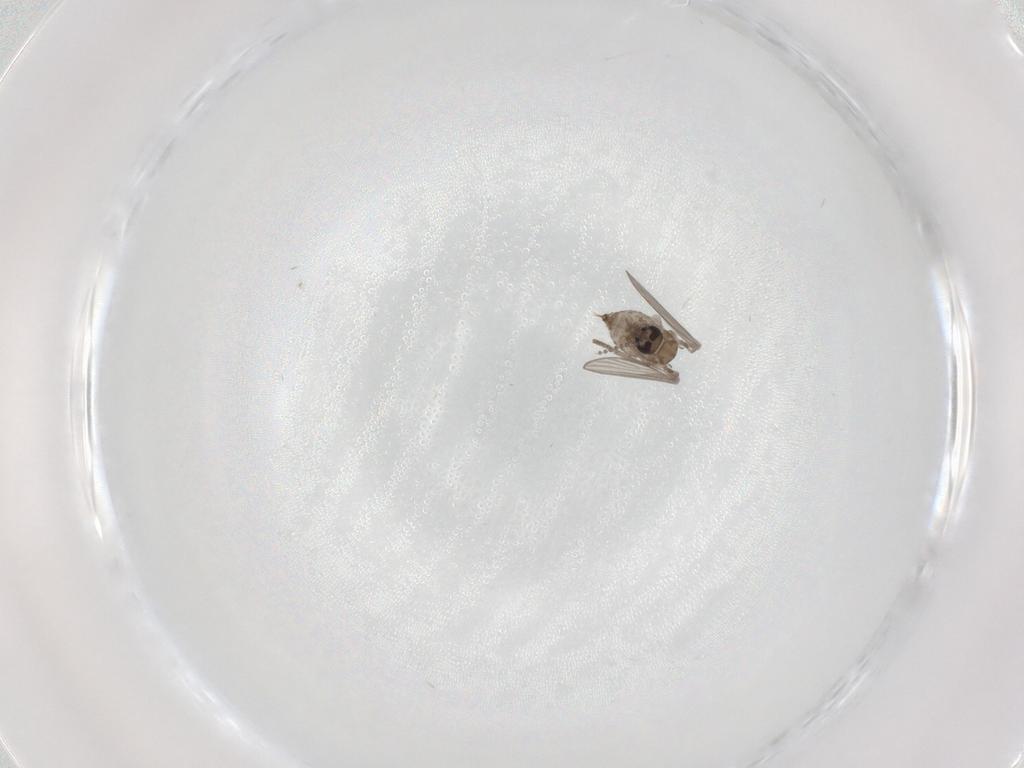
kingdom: Animalia
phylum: Arthropoda
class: Insecta
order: Diptera
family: Psychodidae
